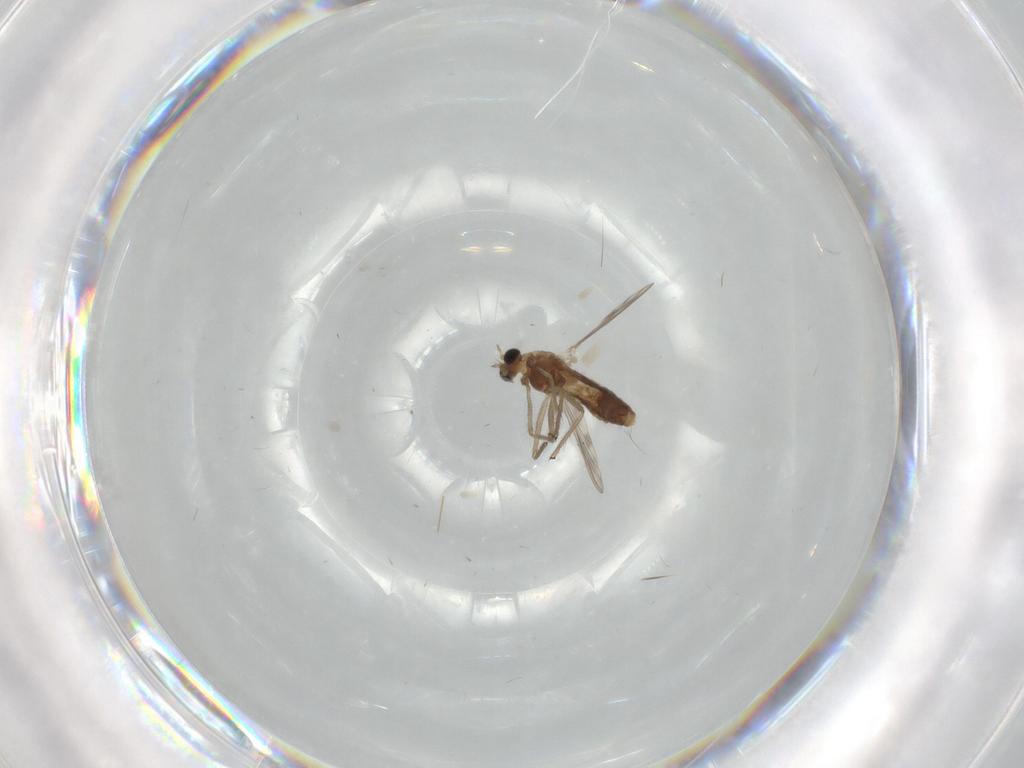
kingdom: Animalia
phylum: Arthropoda
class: Insecta
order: Diptera
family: Chironomidae
